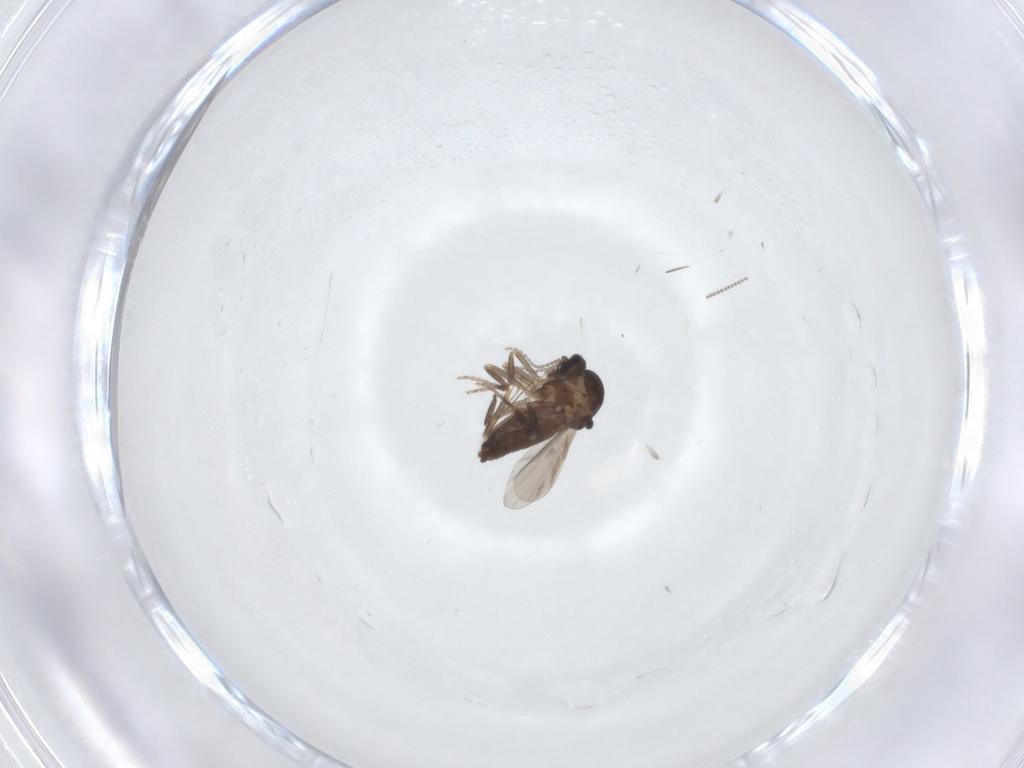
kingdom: Animalia
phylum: Arthropoda
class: Insecta
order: Diptera
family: Ceratopogonidae
